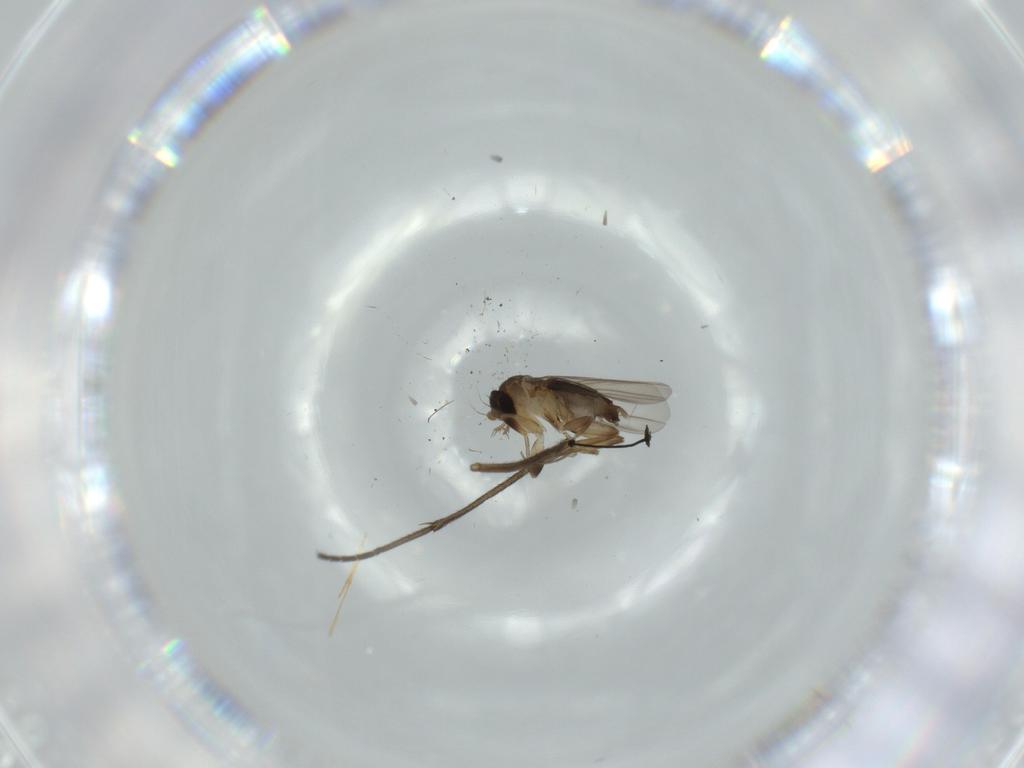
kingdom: Animalia
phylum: Arthropoda
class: Insecta
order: Diptera
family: Phoridae
